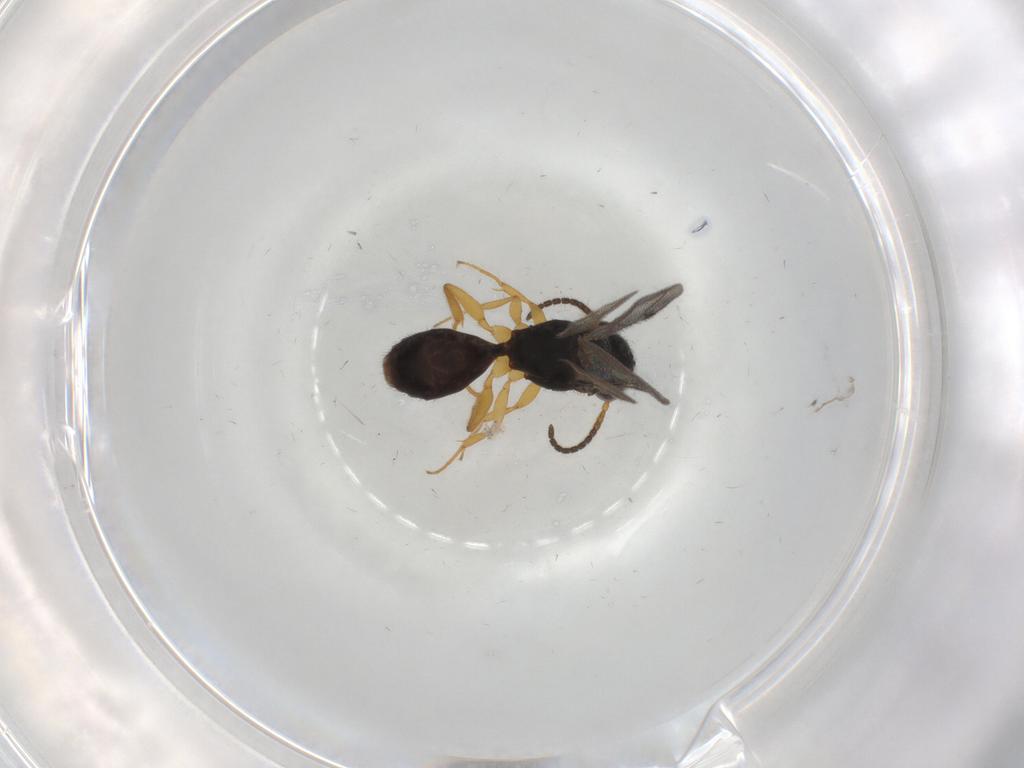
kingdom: Animalia
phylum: Arthropoda
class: Insecta
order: Hymenoptera
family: Bethylidae
